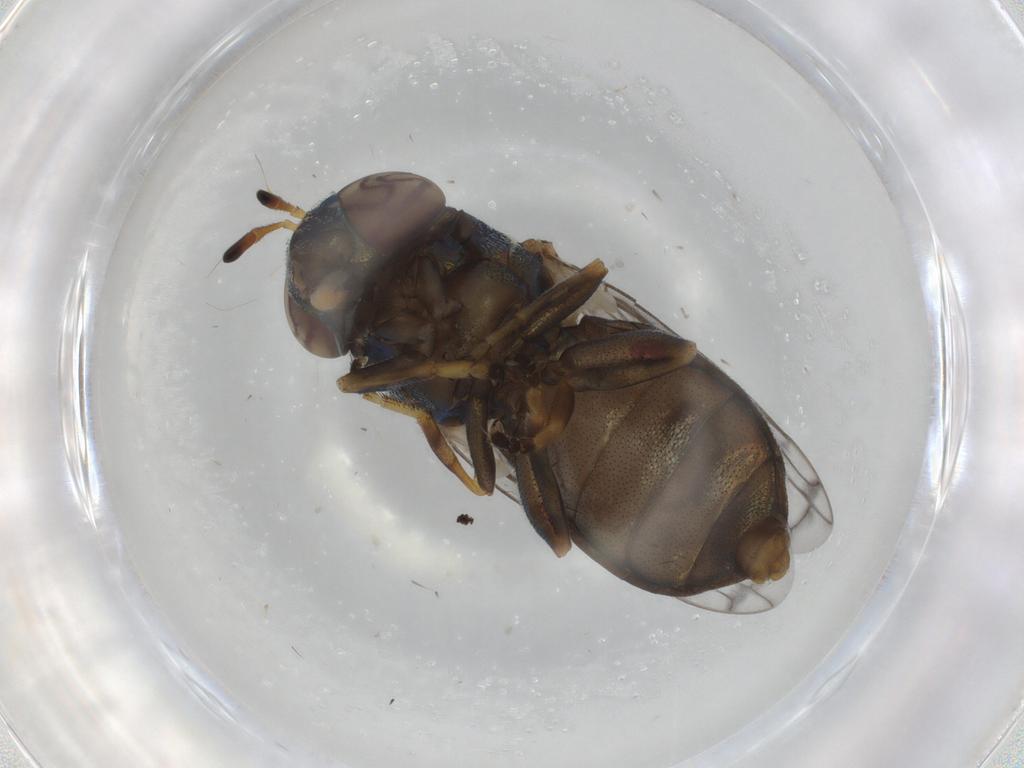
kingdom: Animalia
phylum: Arthropoda
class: Insecta
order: Diptera
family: Syrphidae
